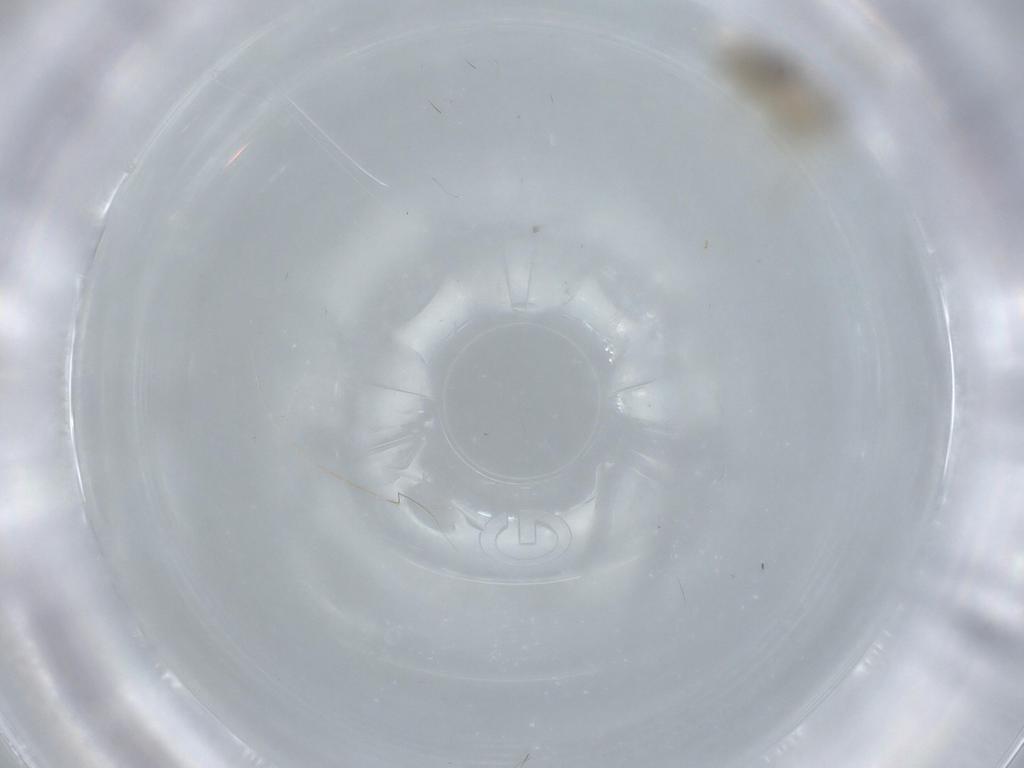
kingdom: Animalia
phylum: Arthropoda
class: Insecta
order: Psocodea
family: Pseudocaeciliidae
